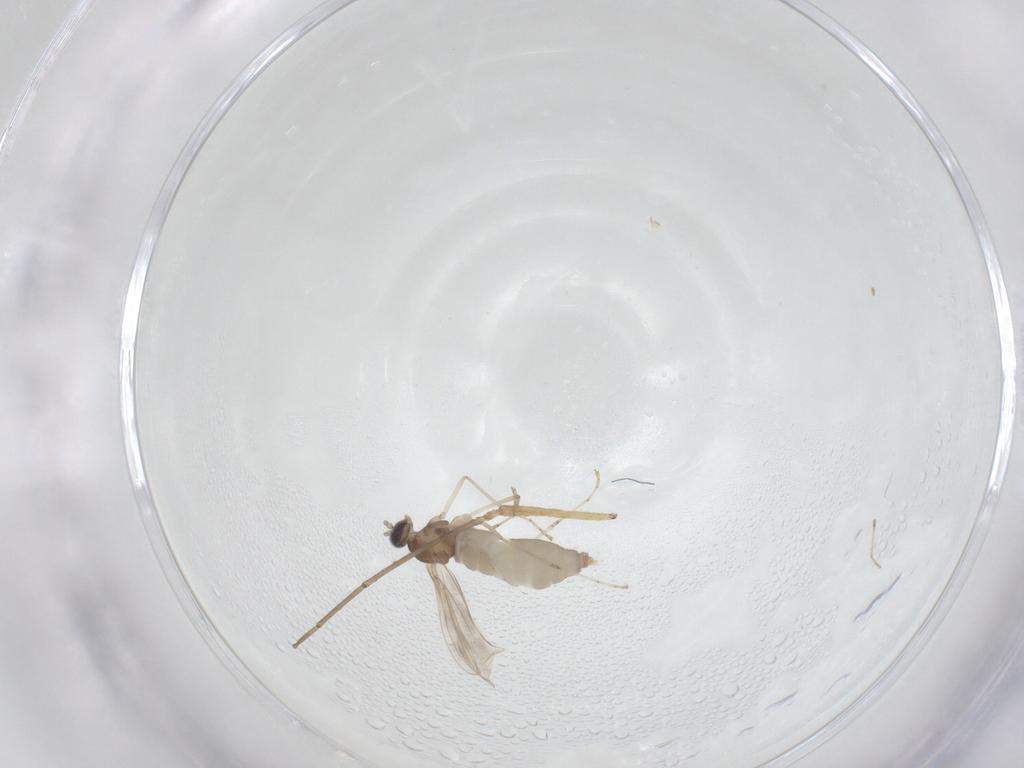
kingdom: Animalia
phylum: Arthropoda
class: Insecta
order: Diptera
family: Cecidomyiidae
